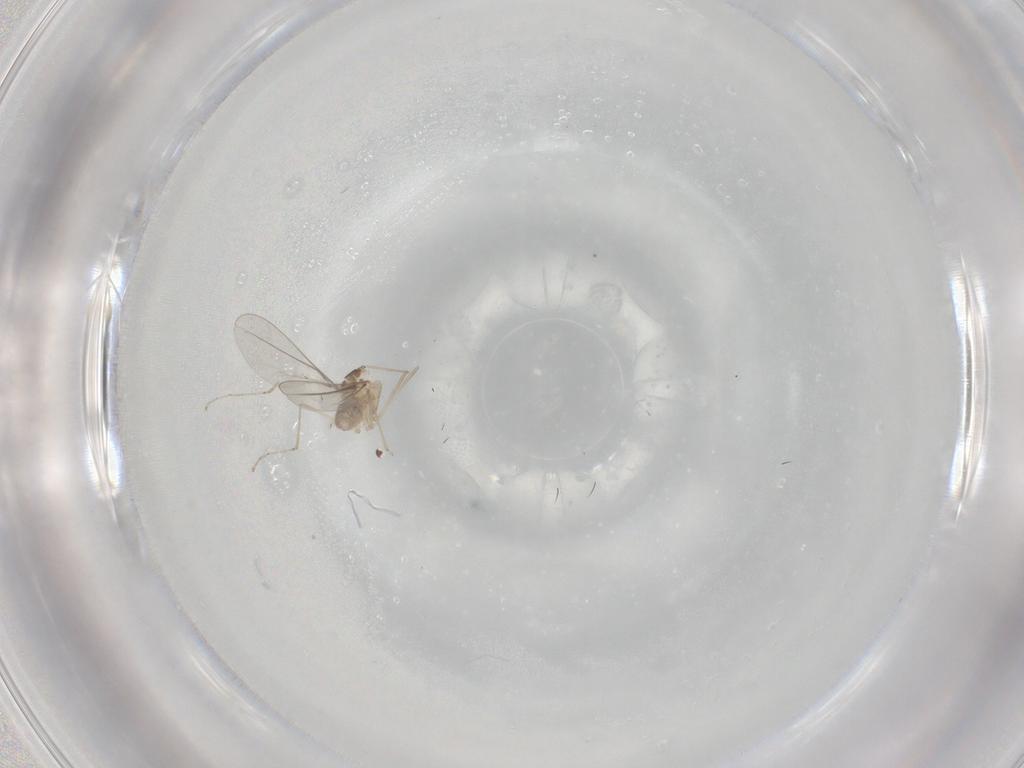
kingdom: Animalia
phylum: Arthropoda
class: Insecta
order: Diptera
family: Cecidomyiidae
